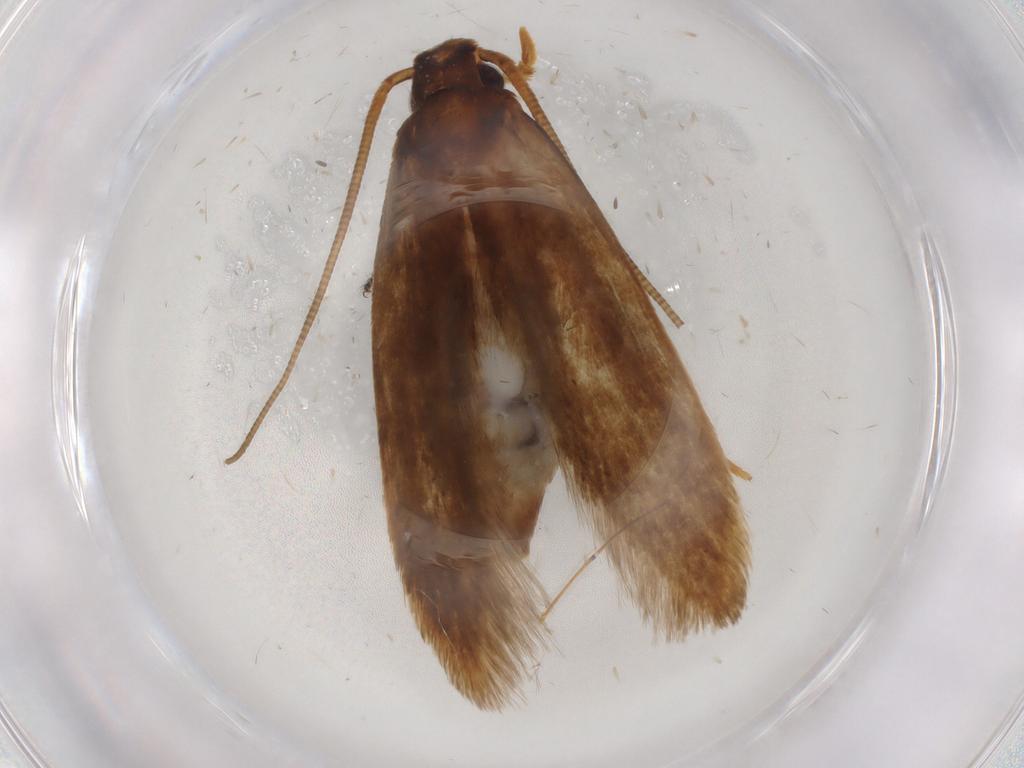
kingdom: Animalia
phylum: Arthropoda
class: Insecta
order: Lepidoptera
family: Tineidae
